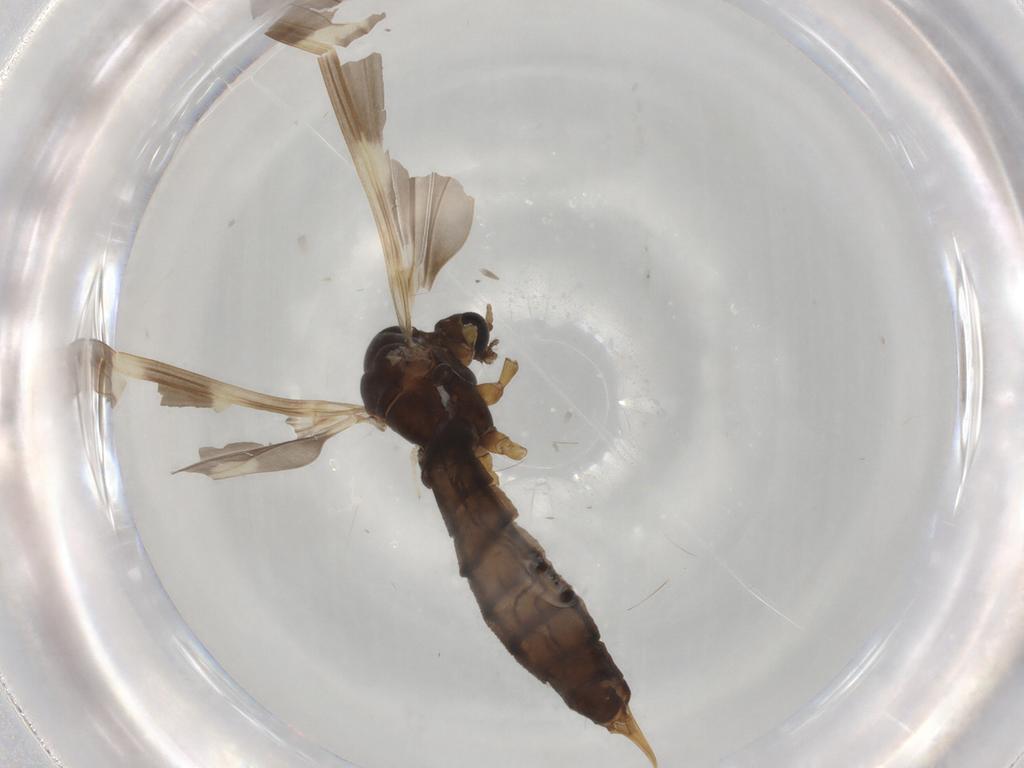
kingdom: Animalia
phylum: Arthropoda
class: Insecta
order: Diptera
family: Limoniidae
